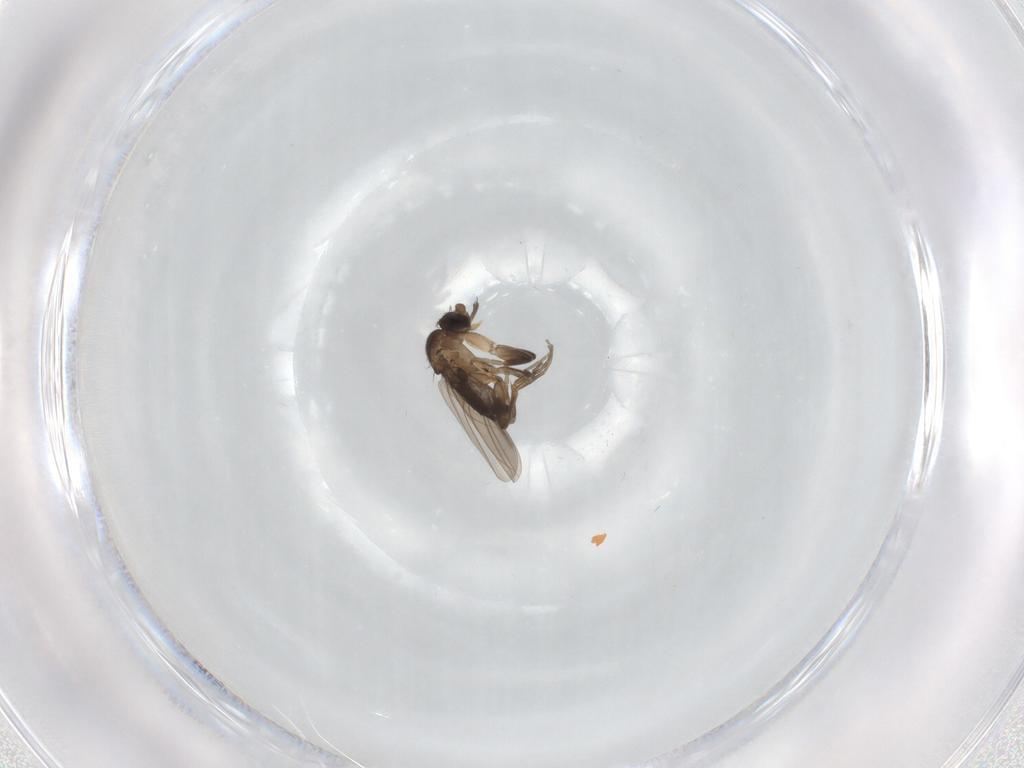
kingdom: Animalia
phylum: Arthropoda
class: Insecta
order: Diptera
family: Phoridae
